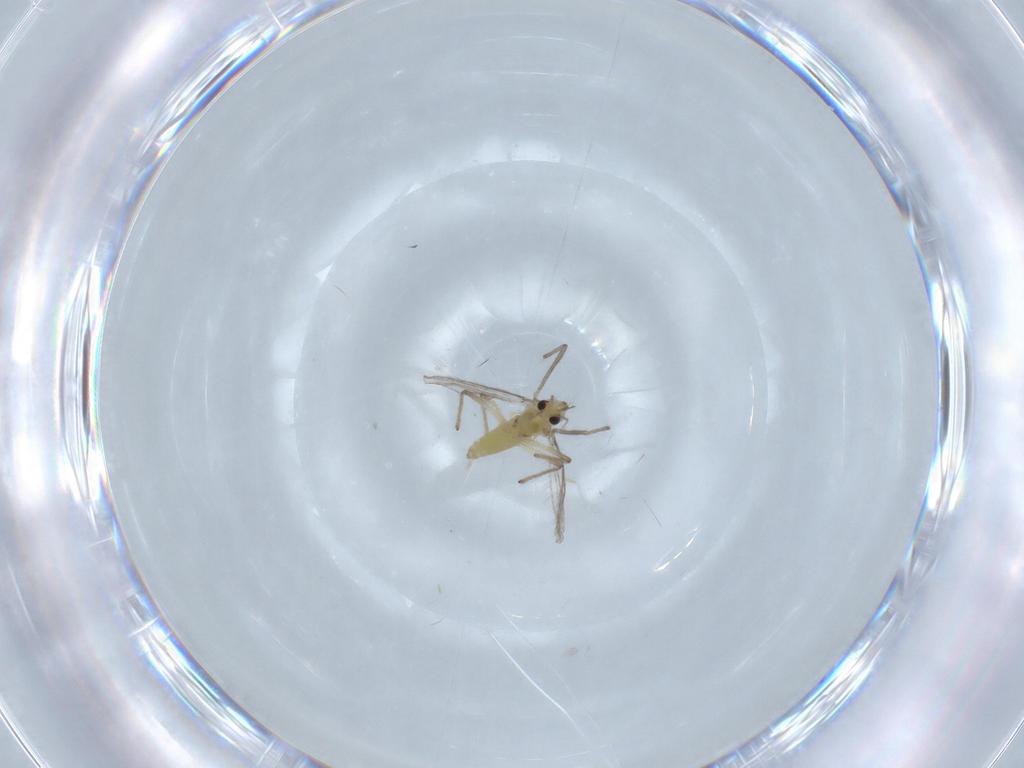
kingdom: Animalia
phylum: Arthropoda
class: Insecta
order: Diptera
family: Chironomidae
